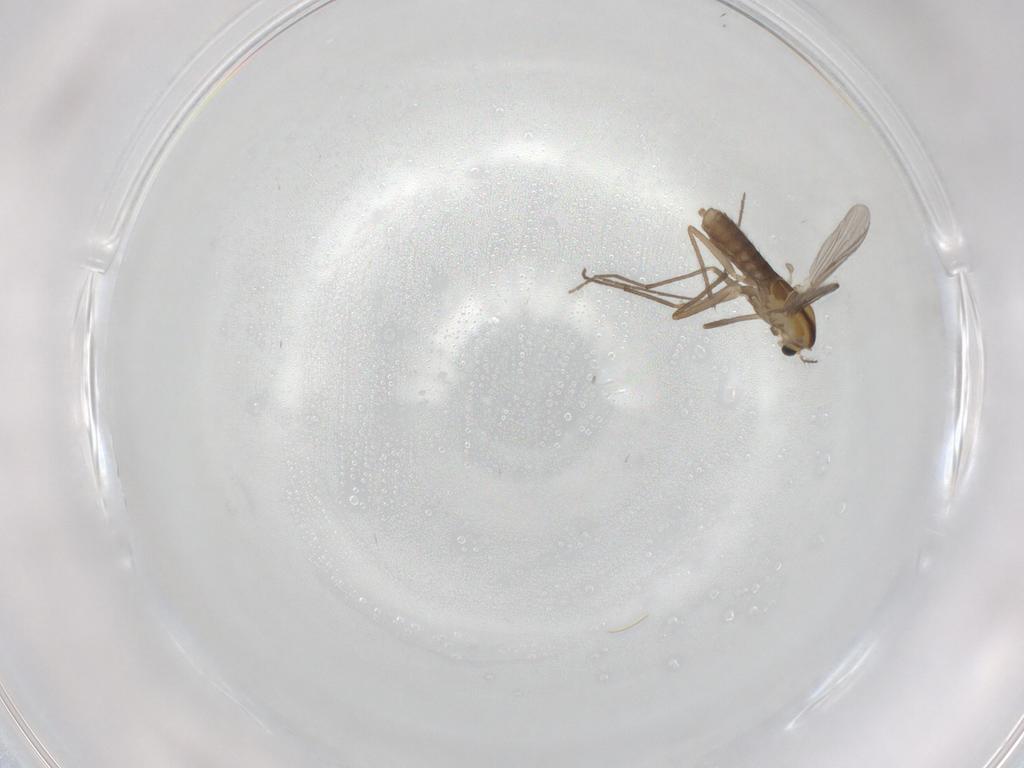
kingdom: Animalia
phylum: Arthropoda
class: Insecta
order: Diptera
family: Chironomidae
